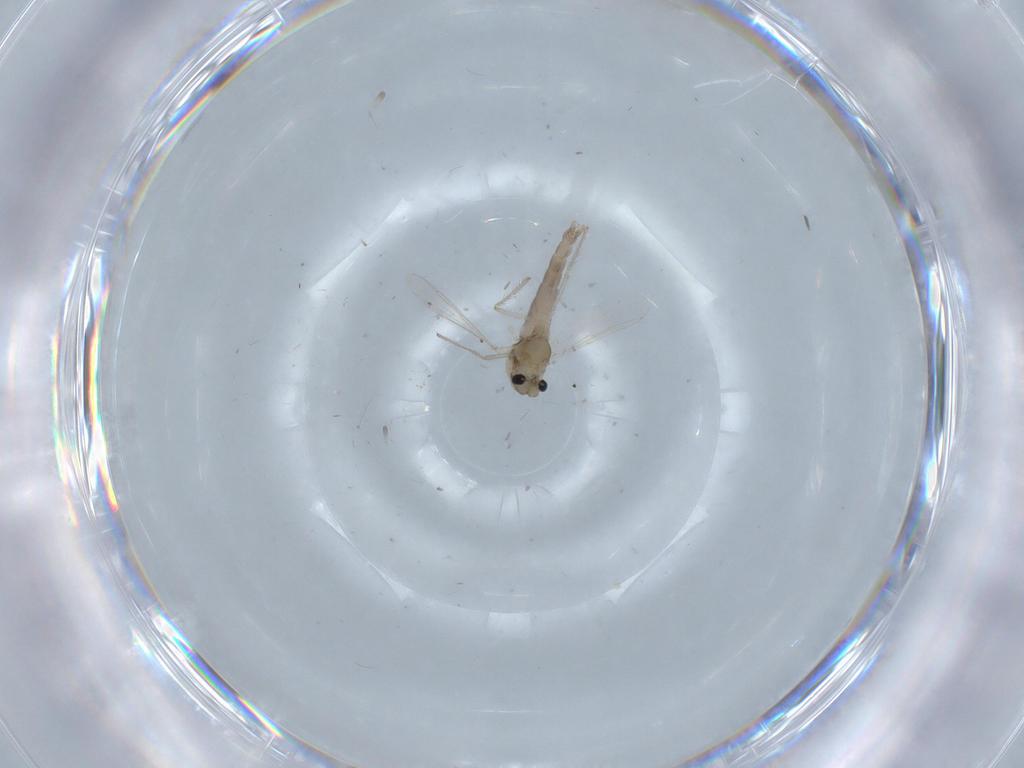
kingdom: Animalia
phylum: Arthropoda
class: Insecta
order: Diptera
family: Chironomidae
